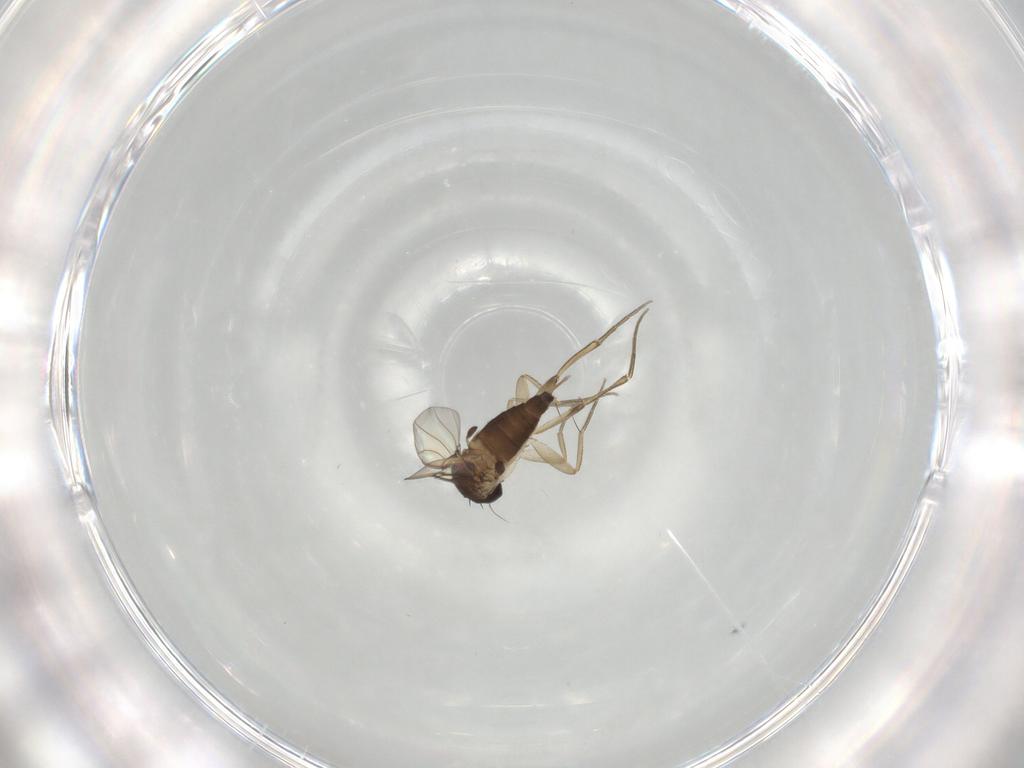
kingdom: Animalia
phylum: Arthropoda
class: Insecta
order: Diptera
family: Phoridae
